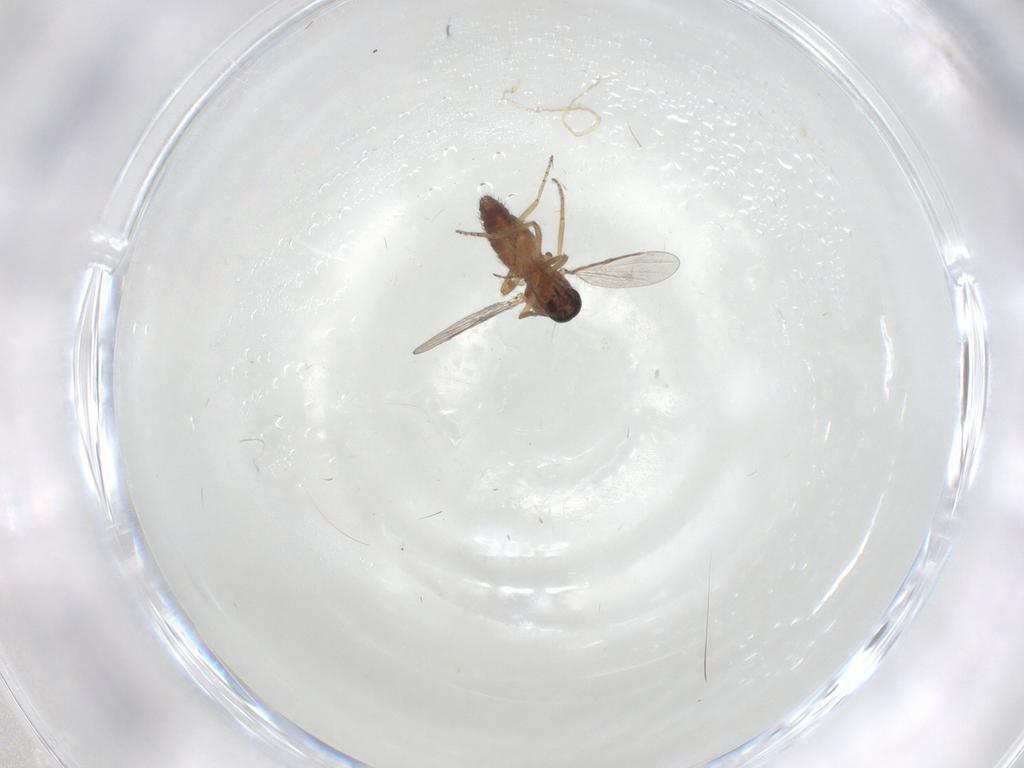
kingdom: Animalia
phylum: Arthropoda
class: Insecta
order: Diptera
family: Ceratopogonidae
